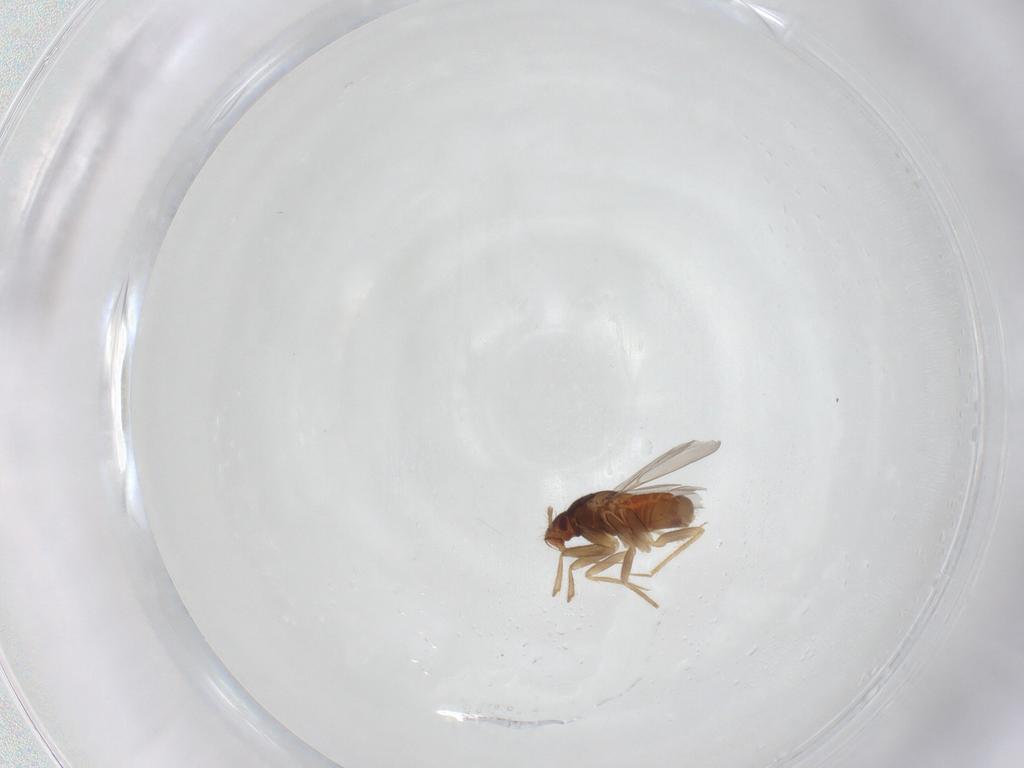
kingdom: Animalia
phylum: Arthropoda
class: Insecta
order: Hemiptera
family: Ceratocombidae
